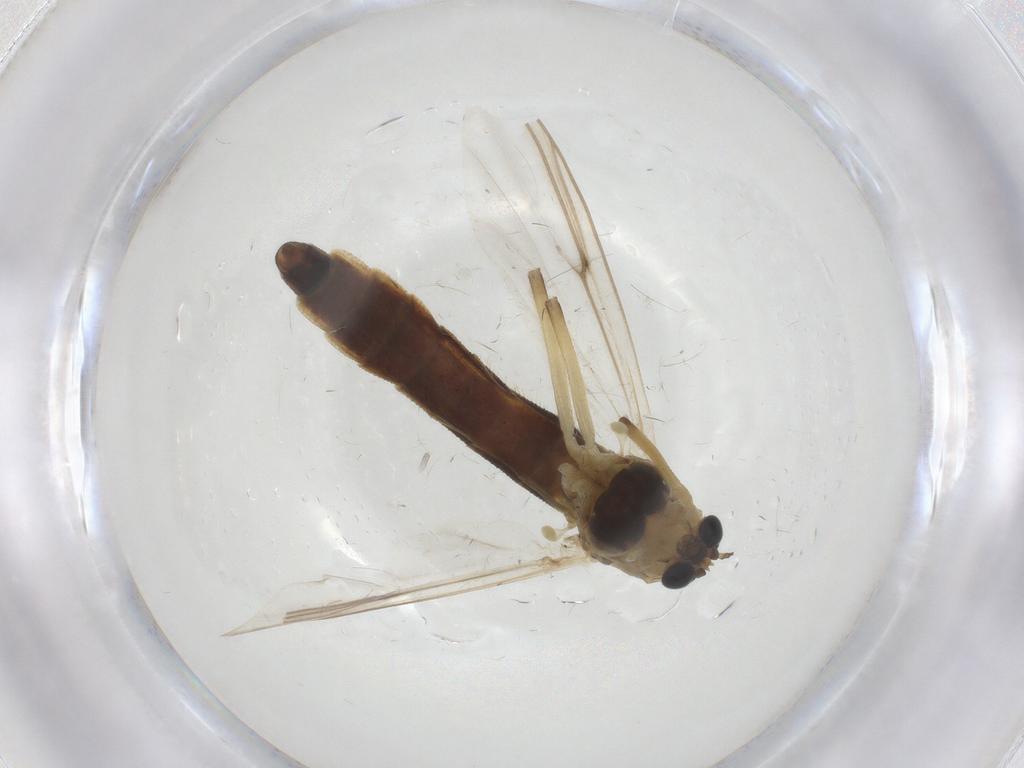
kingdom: Animalia
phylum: Arthropoda
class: Insecta
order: Diptera
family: Chironomidae
